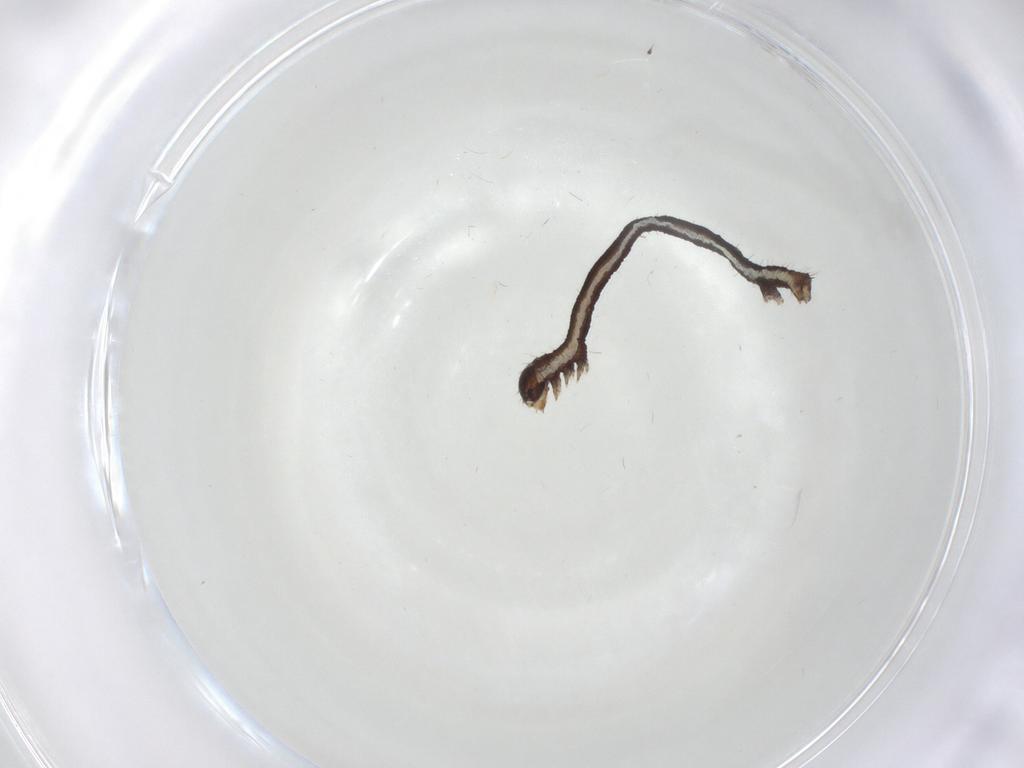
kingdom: Animalia
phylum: Arthropoda
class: Insecta
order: Lepidoptera
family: Geometridae
